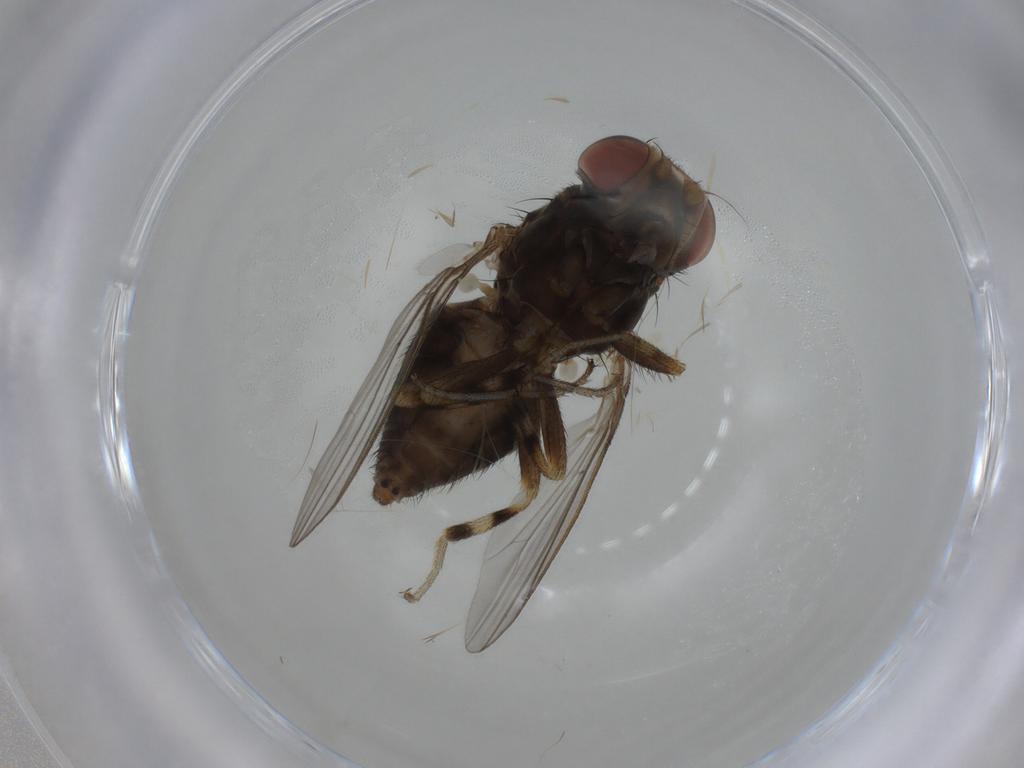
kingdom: Animalia
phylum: Arthropoda
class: Insecta
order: Diptera
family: Drosophilidae
